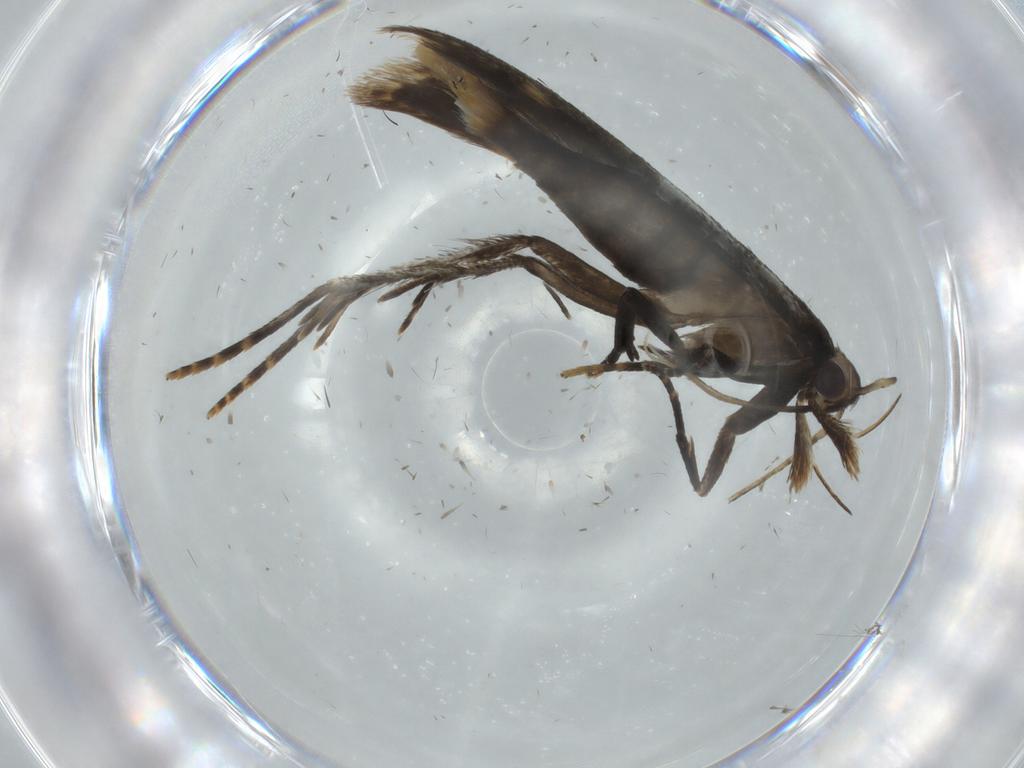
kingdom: Animalia
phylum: Arthropoda
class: Insecta
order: Lepidoptera
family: Gelechiidae
